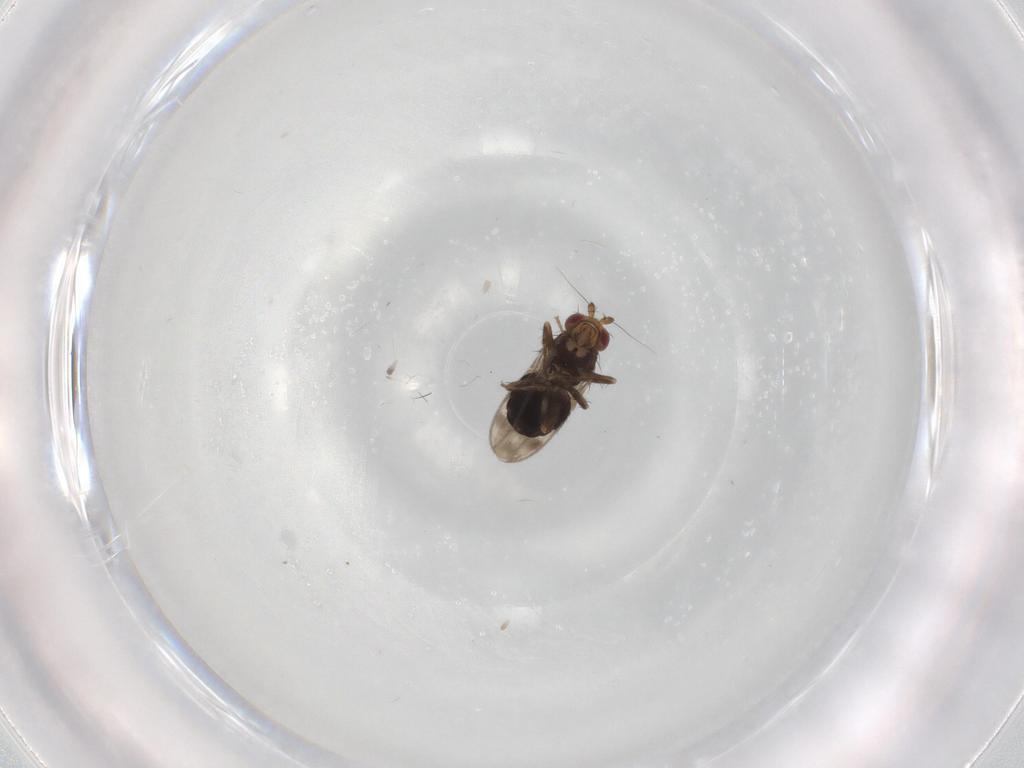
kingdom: Animalia
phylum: Arthropoda
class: Insecta
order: Diptera
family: Sphaeroceridae
